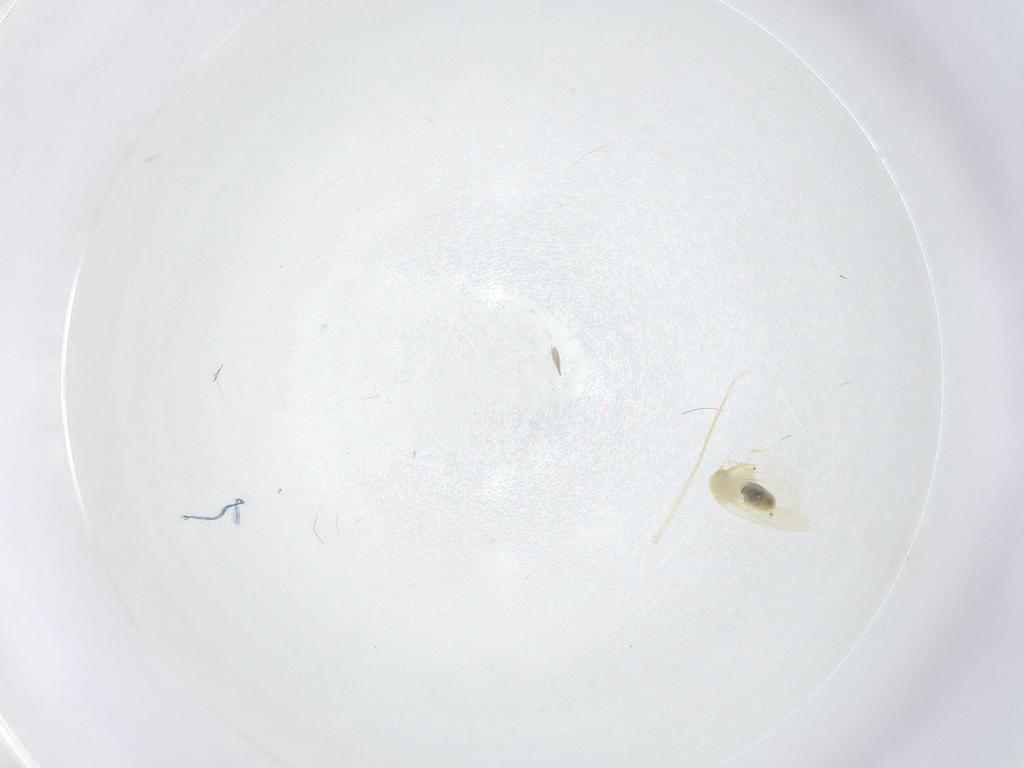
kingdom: Animalia
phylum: Arthropoda
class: Insecta
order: Hemiptera
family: Aleyrodidae
